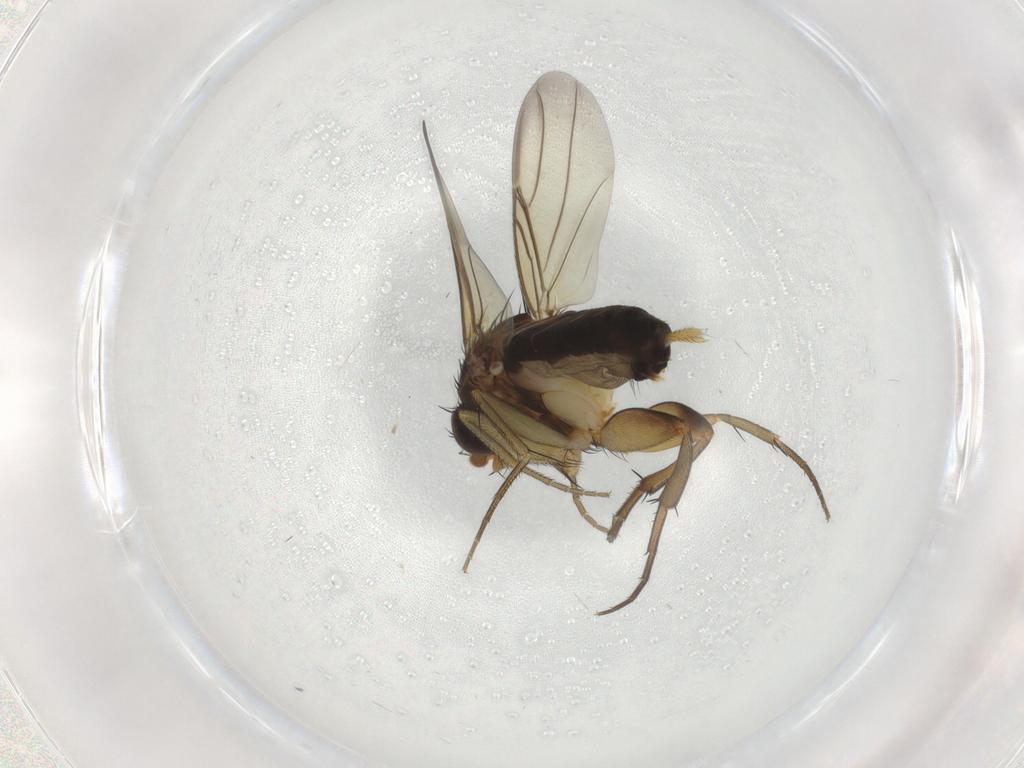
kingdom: Animalia
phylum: Arthropoda
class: Insecta
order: Diptera
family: Phoridae
